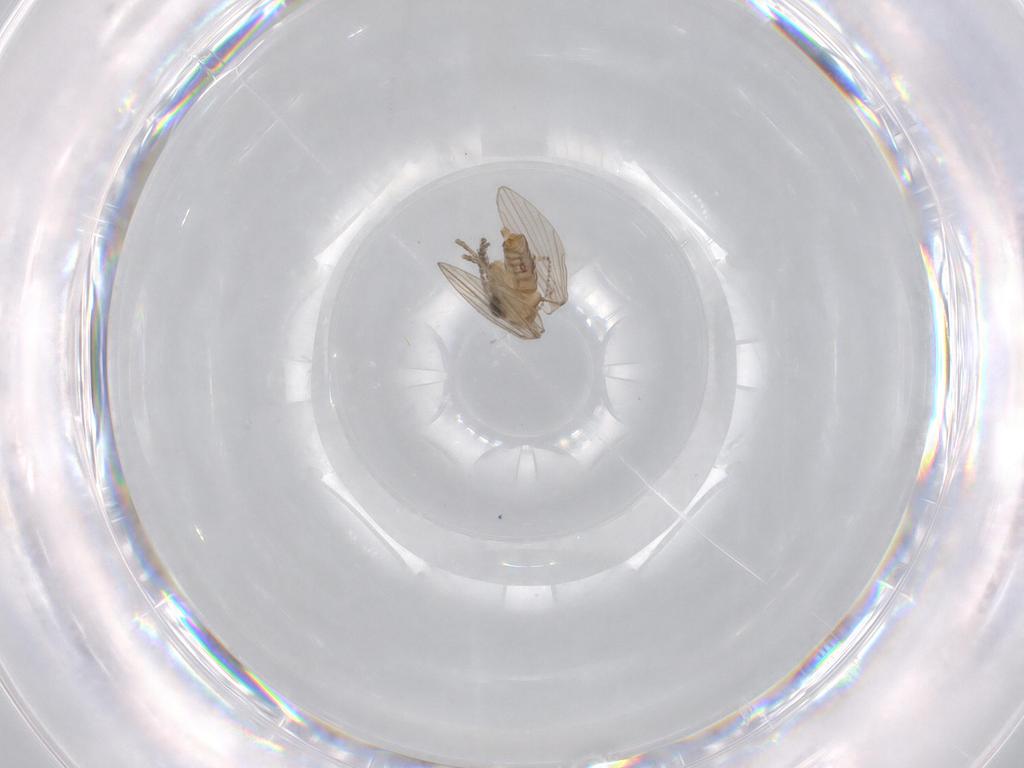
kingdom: Animalia
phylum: Arthropoda
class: Insecta
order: Diptera
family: Cecidomyiidae
